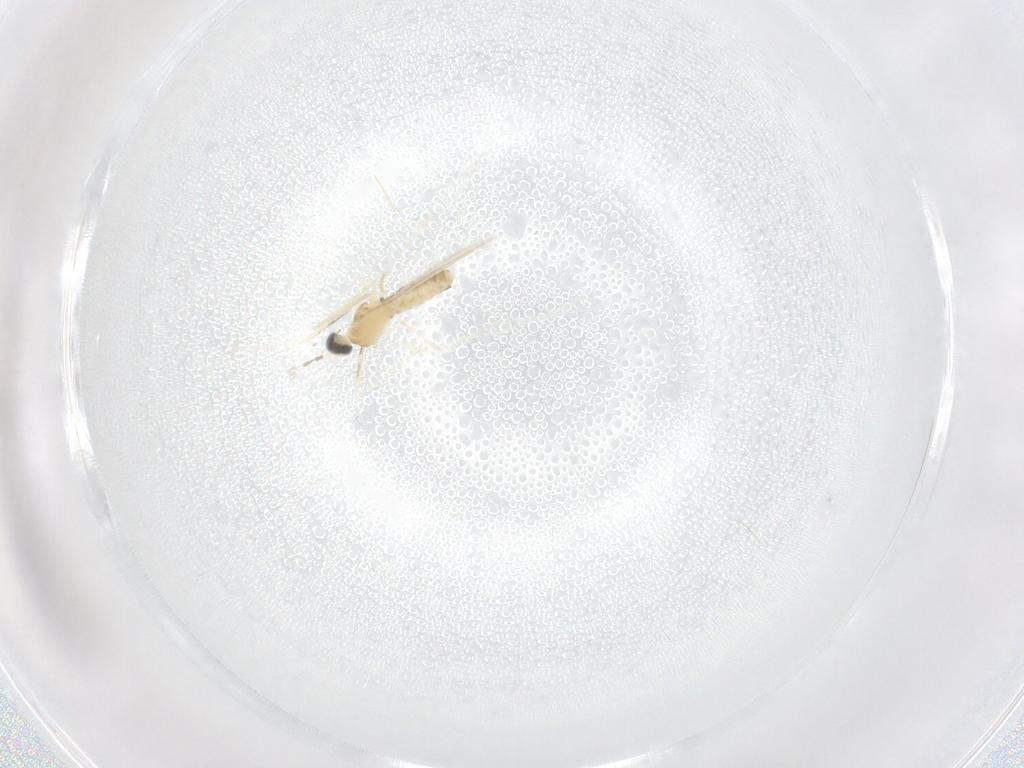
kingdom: Animalia
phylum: Arthropoda
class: Insecta
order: Diptera
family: Cecidomyiidae
